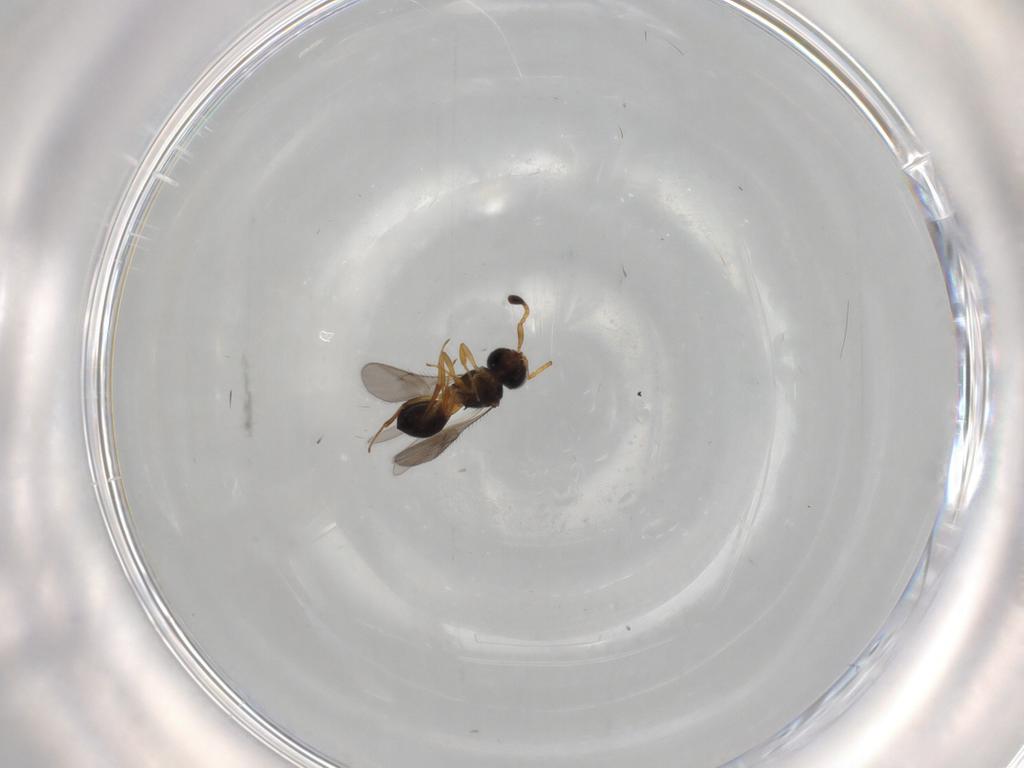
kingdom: Animalia
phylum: Arthropoda
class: Insecta
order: Hymenoptera
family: Scelionidae
